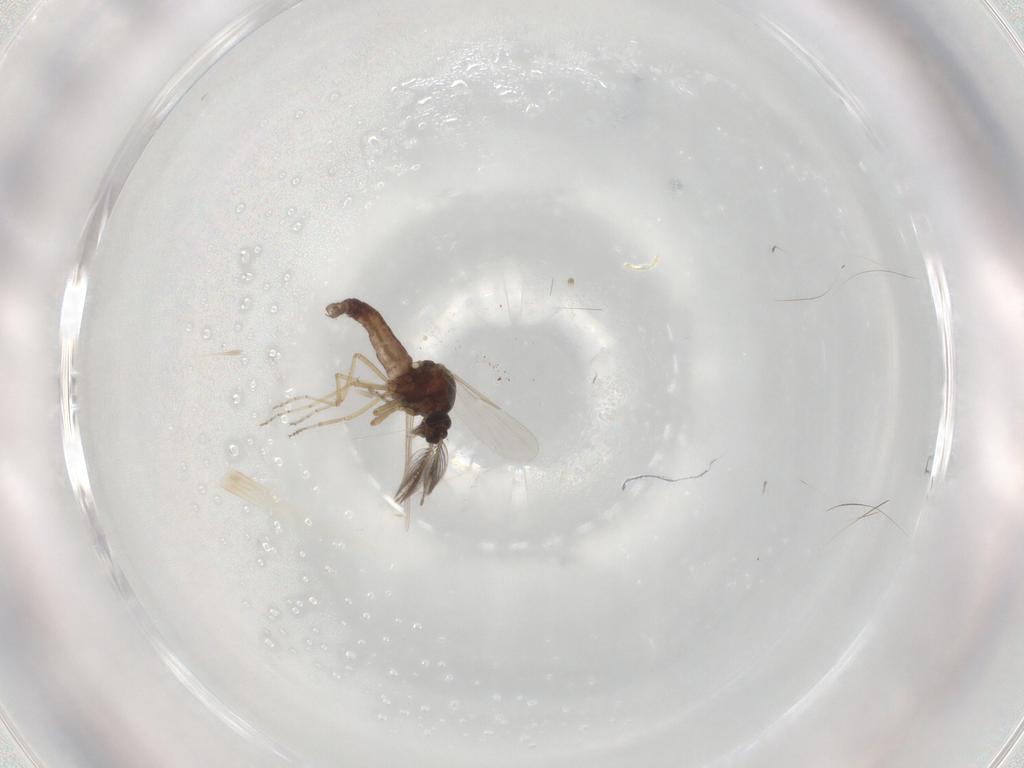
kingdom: Animalia
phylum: Arthropoda
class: Insecta
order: Diptera
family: Ceratopogonidae
